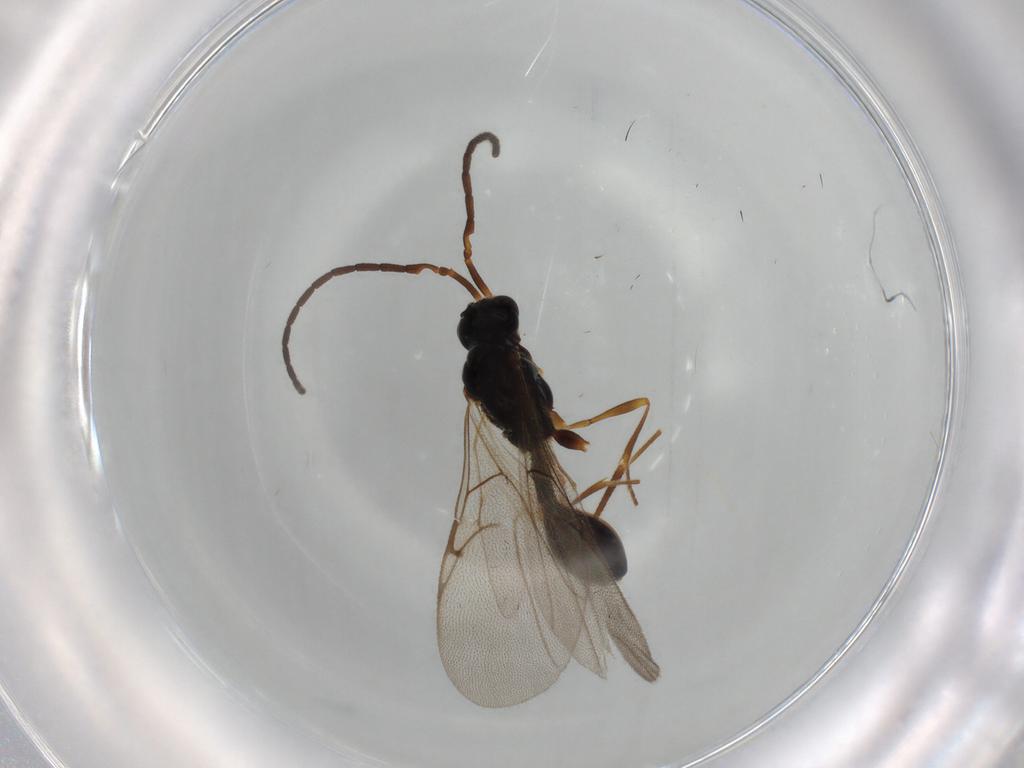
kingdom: Animalia
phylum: Arthropoda
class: Insecta
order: Hymenoptera
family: Diapriidae
